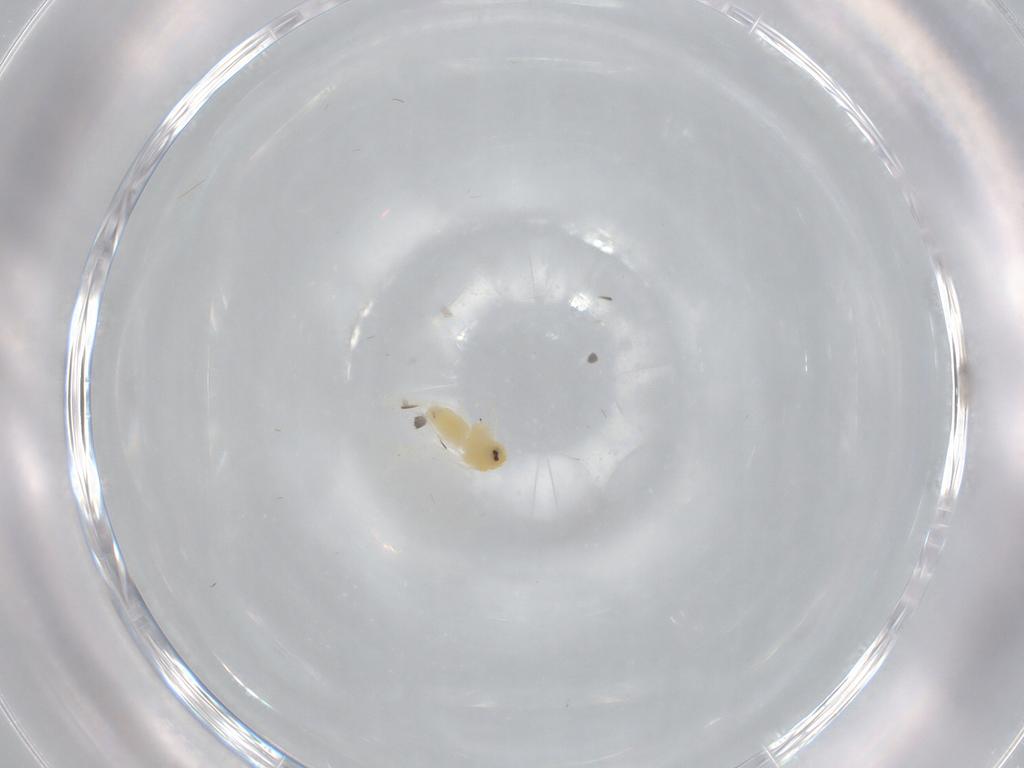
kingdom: Animalia
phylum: Arthropoda
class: Insecta
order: Hemiptera
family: Aleyrodidae
